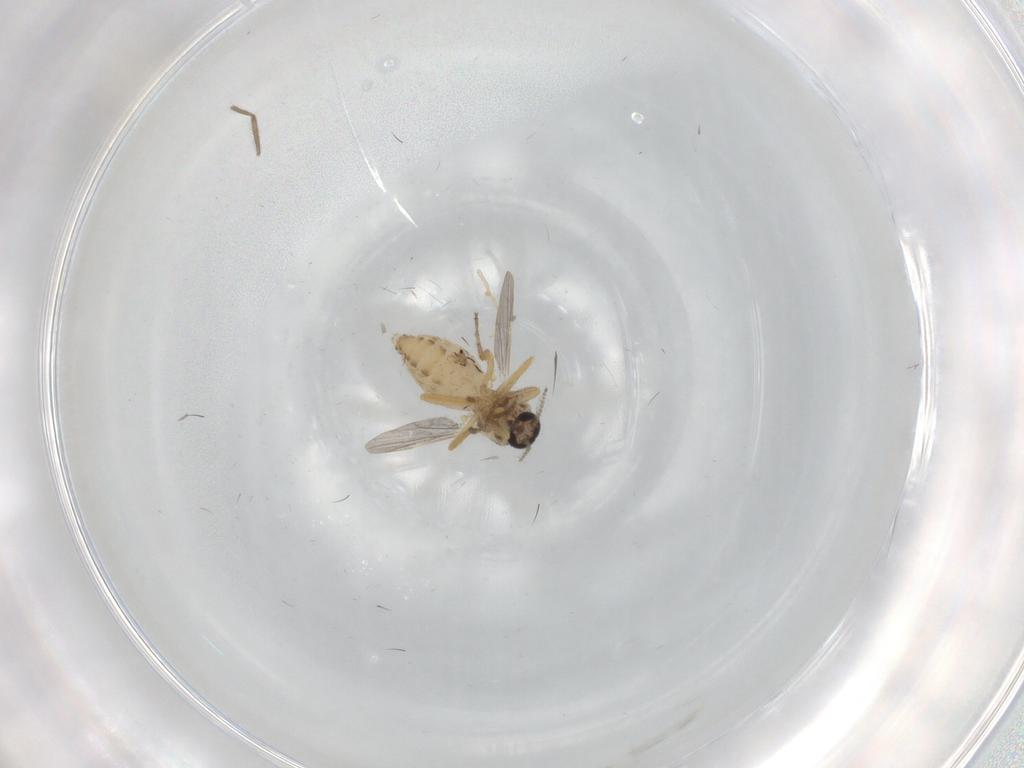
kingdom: Animalia
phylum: Arthropoda
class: Insecta
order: Diptera
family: Ceratopogonidae
